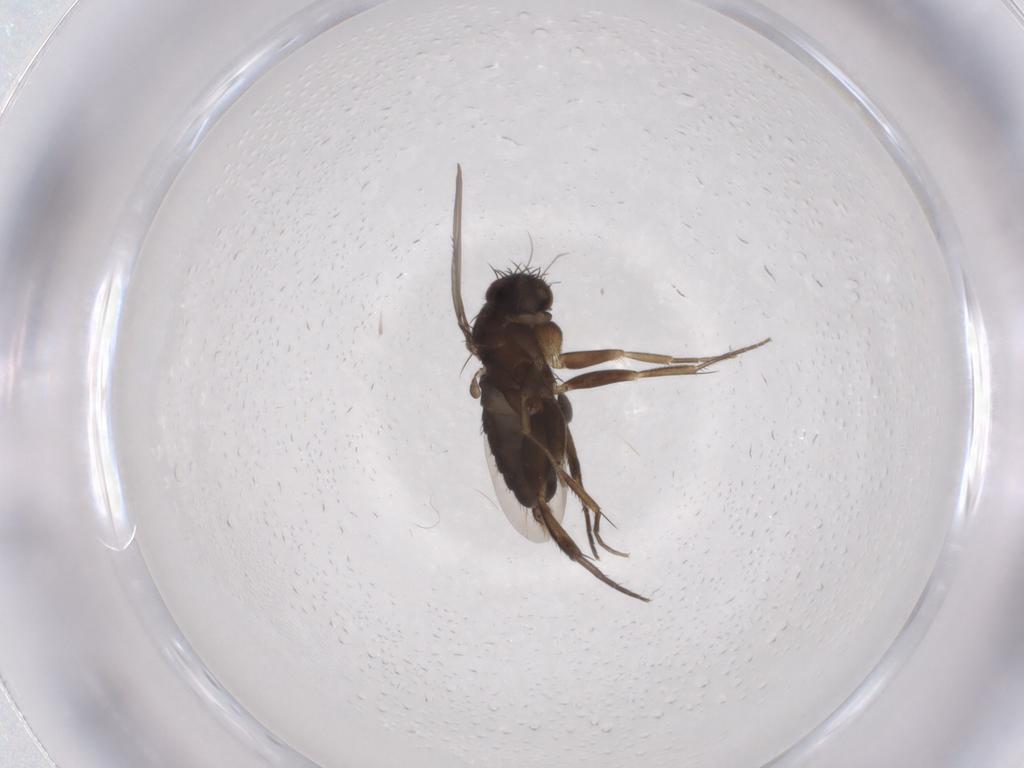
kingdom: Animalia
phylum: Arthropoda
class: Insecta
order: Diptera
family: Phoridae
